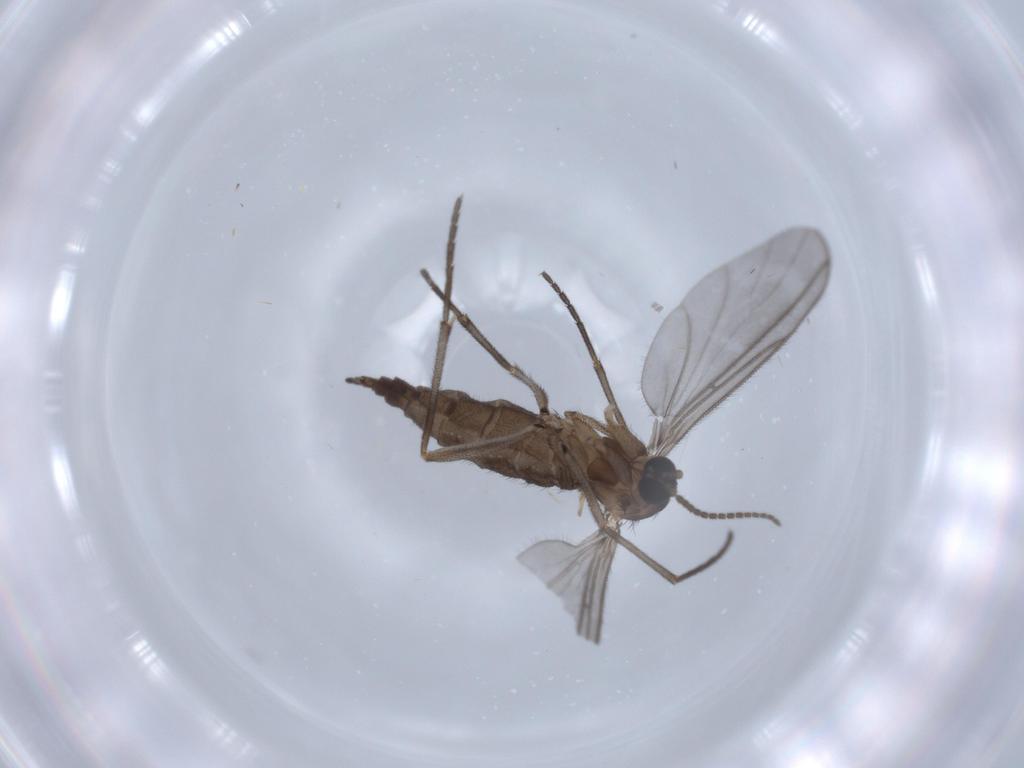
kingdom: Animalia
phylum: Arthropoda
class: Insecta
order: Diptera
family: Sciaridae
